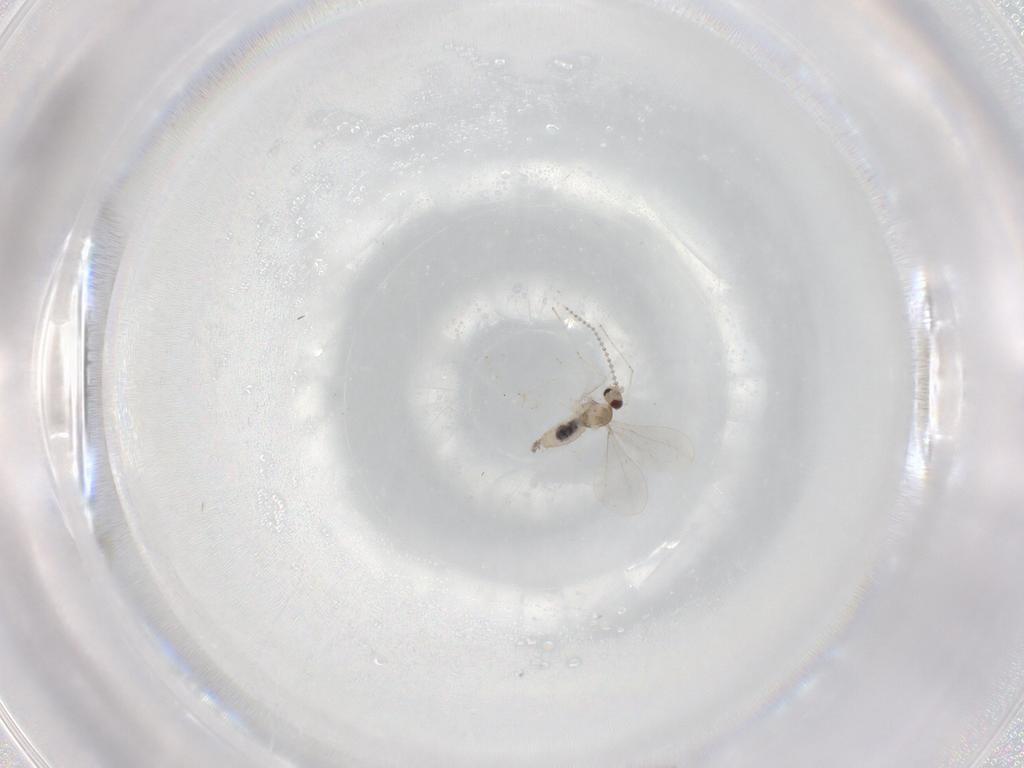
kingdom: Animalia
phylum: Arthropoda
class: Insecta
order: Diptera
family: Cecidomyiidae
